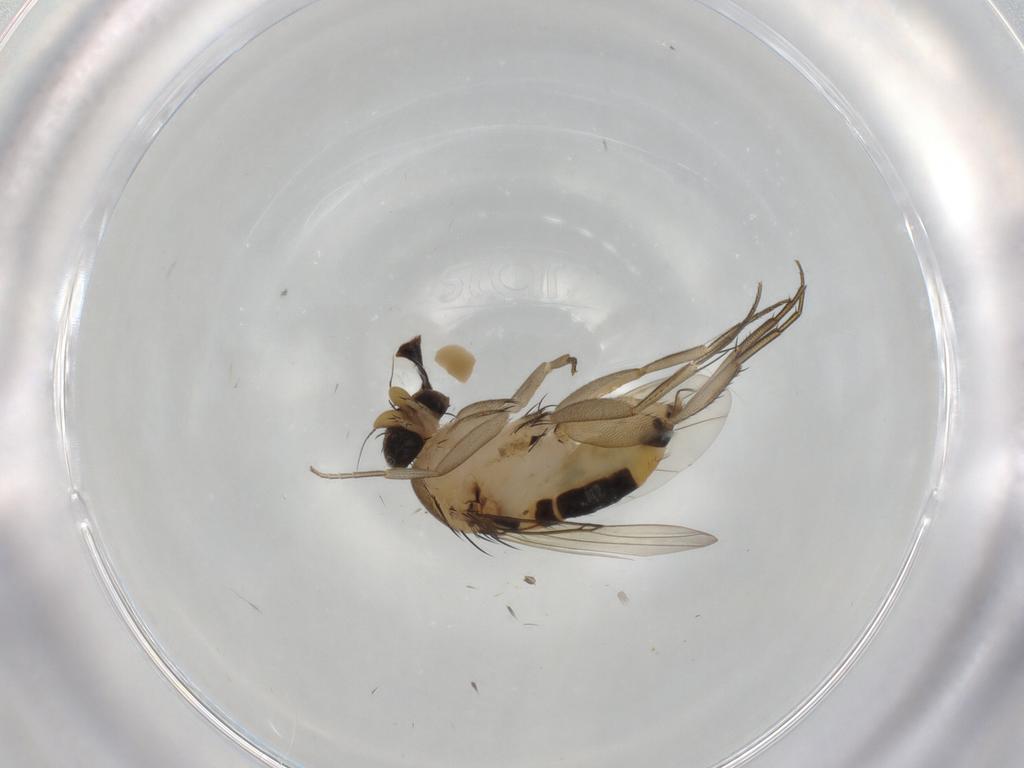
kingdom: Animalia
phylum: Arthropoda
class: Insecta
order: Diptera
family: Phoridae
